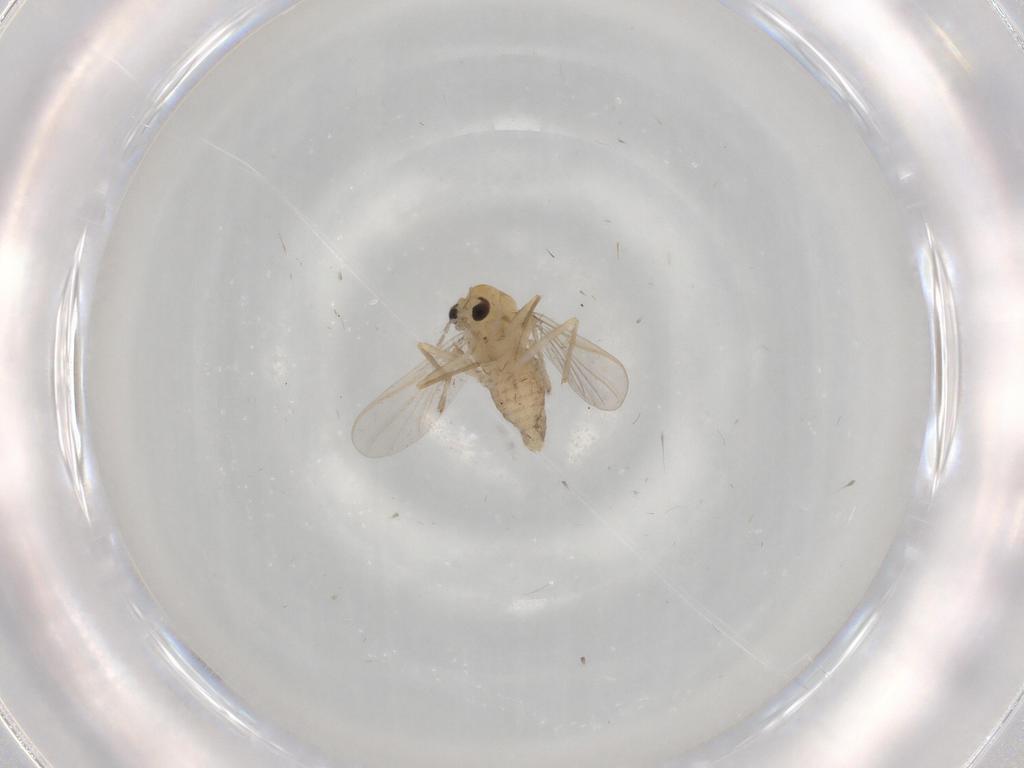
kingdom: Animalia
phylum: Arthropoda
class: Insecta
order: Diptera
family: Chironomidae
